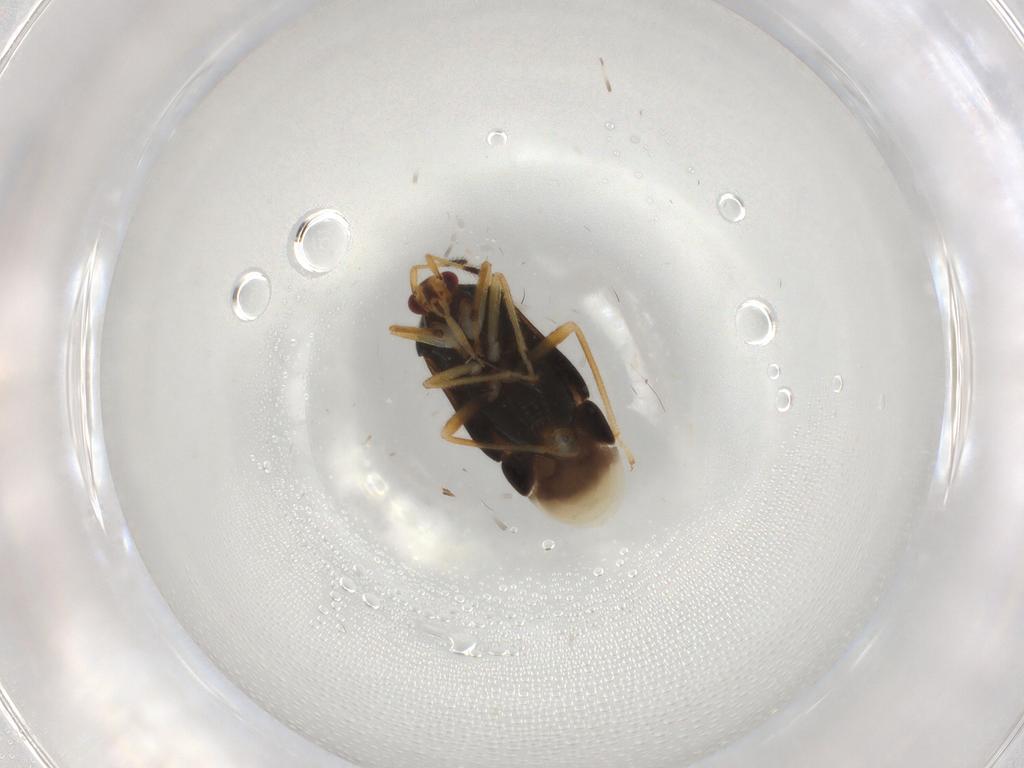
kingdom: Animalia
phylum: Arthropoda
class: Insecta
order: Hemiptera
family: Miridae
